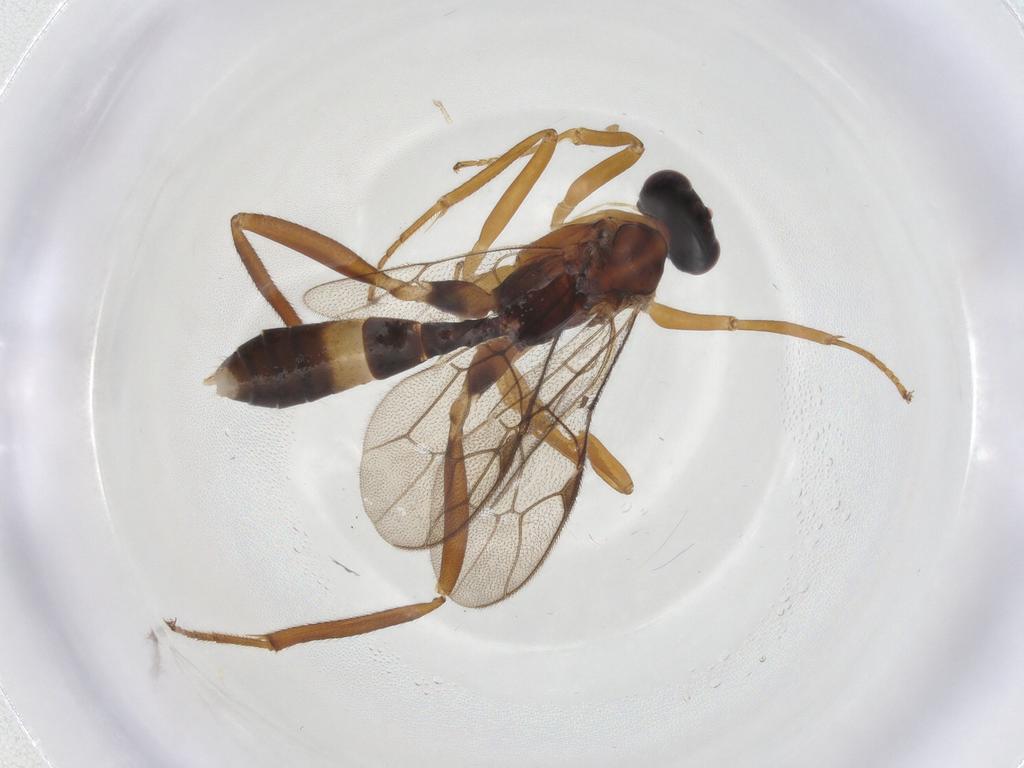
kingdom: Animalia
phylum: Arthropoda
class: Insecta
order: Hymenoptera
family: Ichneumonidae
